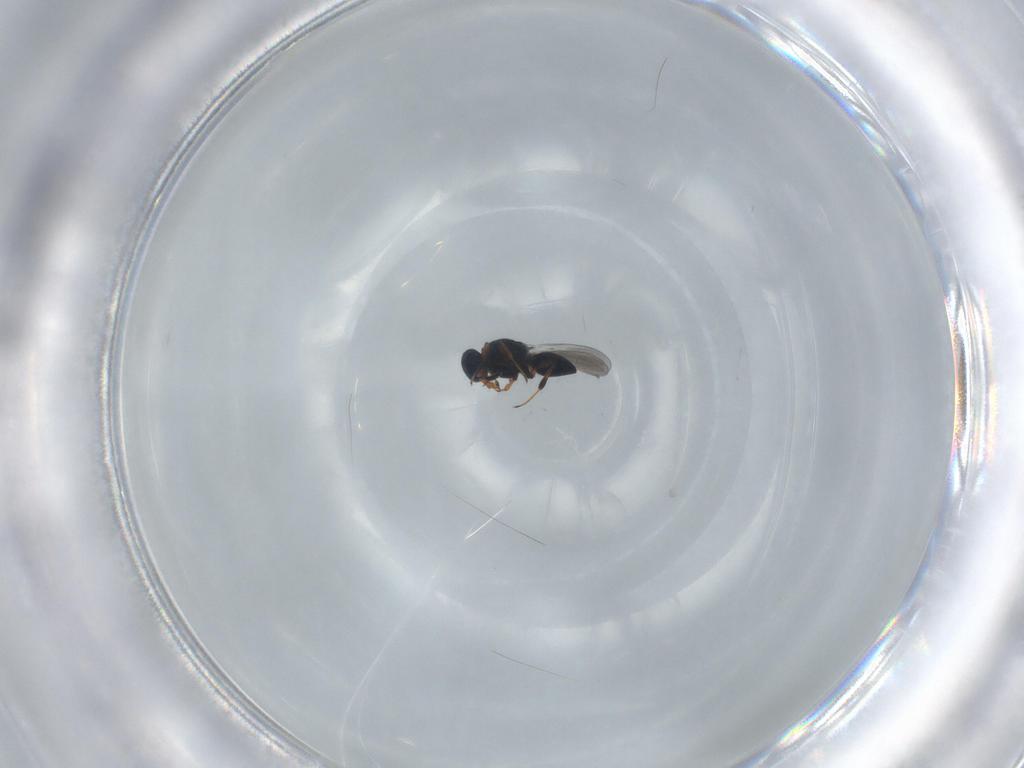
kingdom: Animalia
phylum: Arthropoda
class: Insecta
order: Hymenoptera
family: Platygastridae
